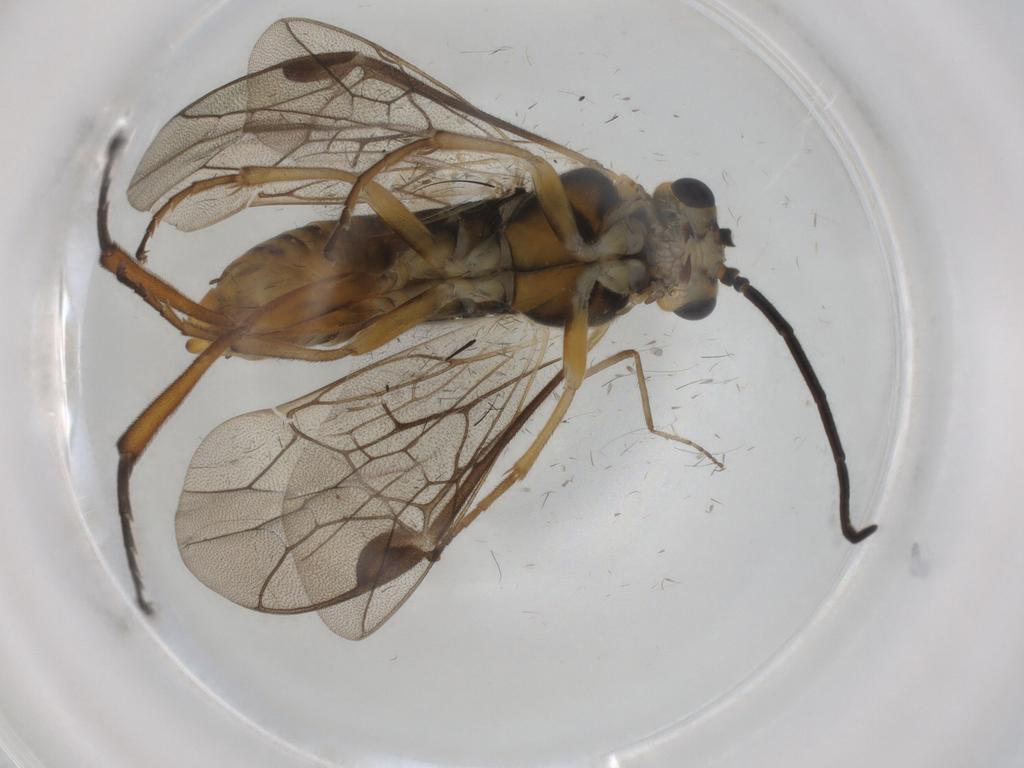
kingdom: Animalia
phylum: Arthropoda
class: Insecta
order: Hymenoptera
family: Tenthredinidae
